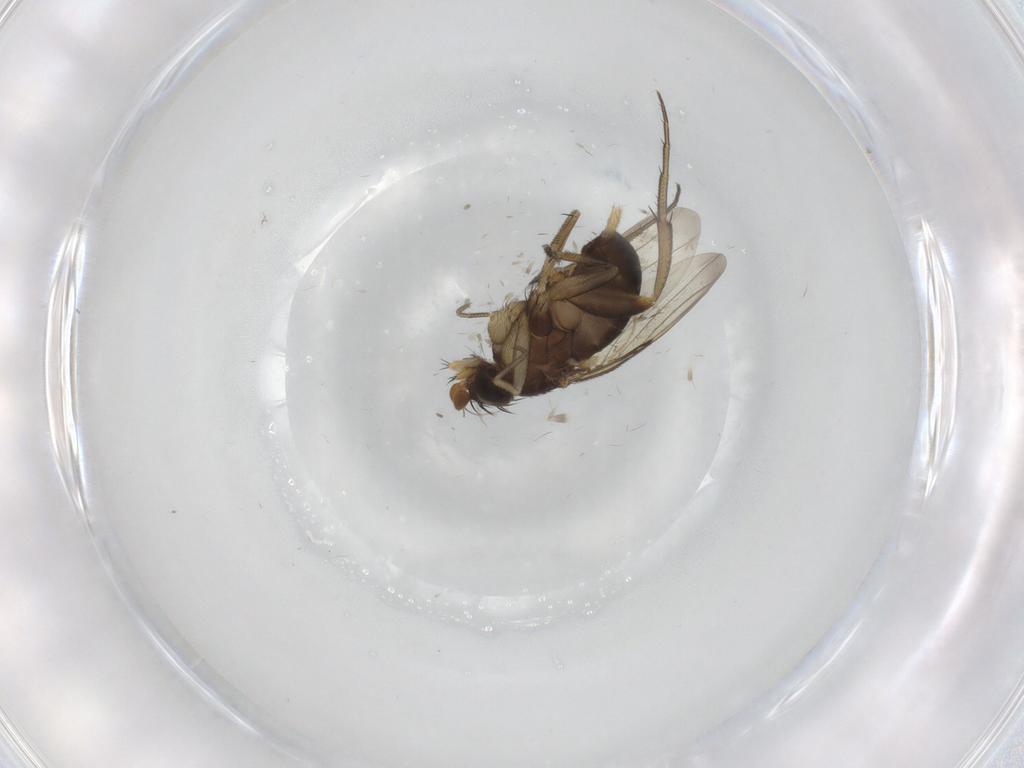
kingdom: Animalia
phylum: Arthropoda
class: Insecta
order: Diptera
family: Phoridae
